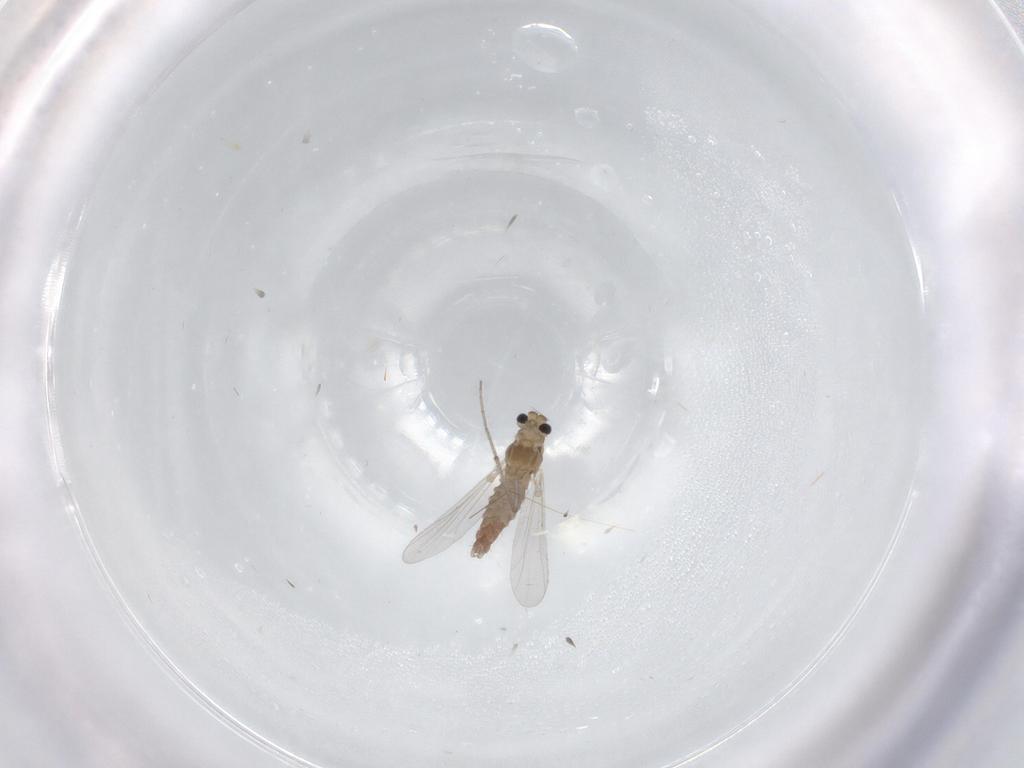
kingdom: Animalia
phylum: Arthropoda
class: Insecta
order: Diptera
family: Chironomidae
